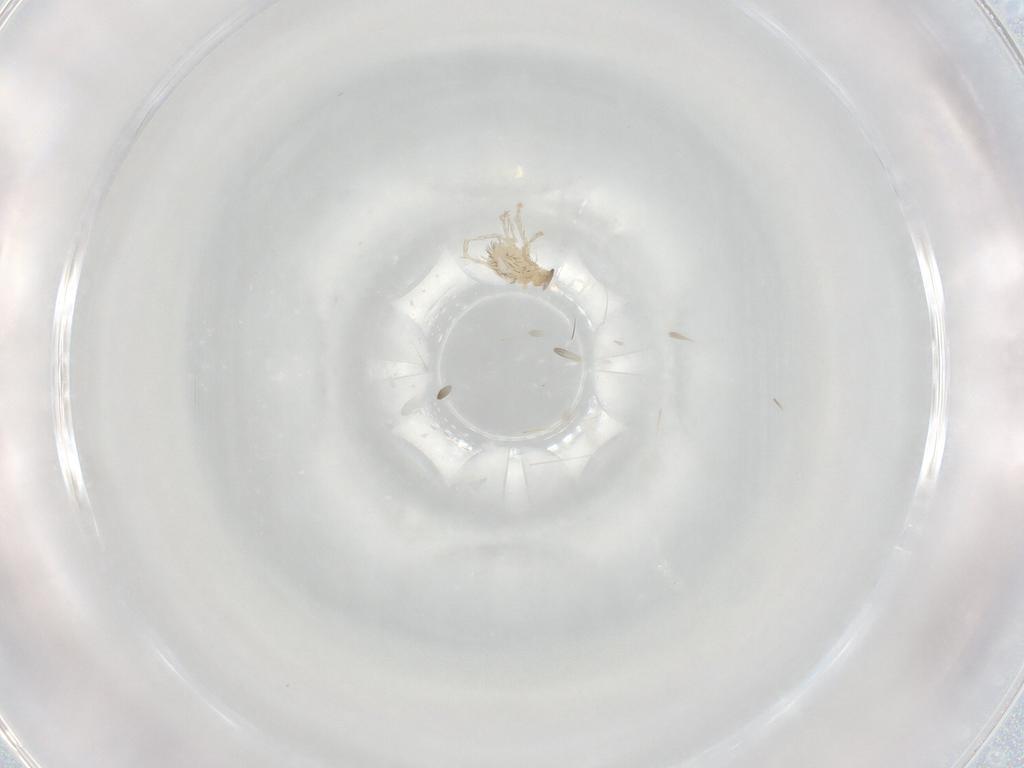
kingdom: Animalia
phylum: Arthropoda
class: Arachnida
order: Trombidiformes
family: Erythraeidae
